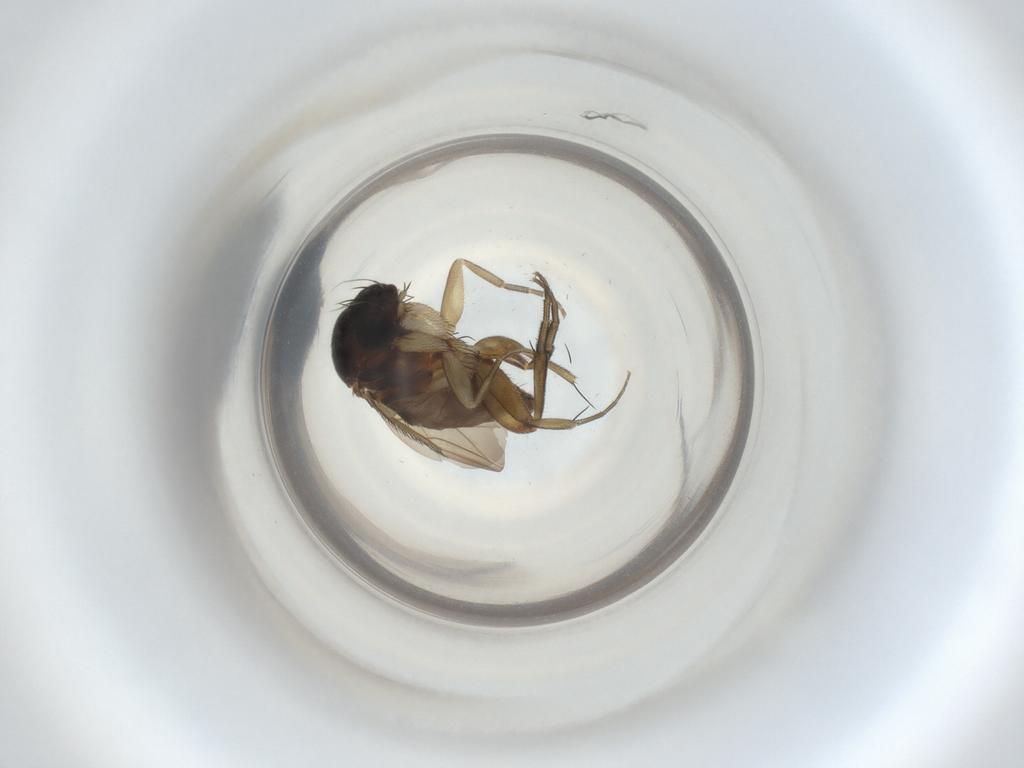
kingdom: Animalia
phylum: Arthropoda
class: Insecta
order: Diptera
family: Phoridae
